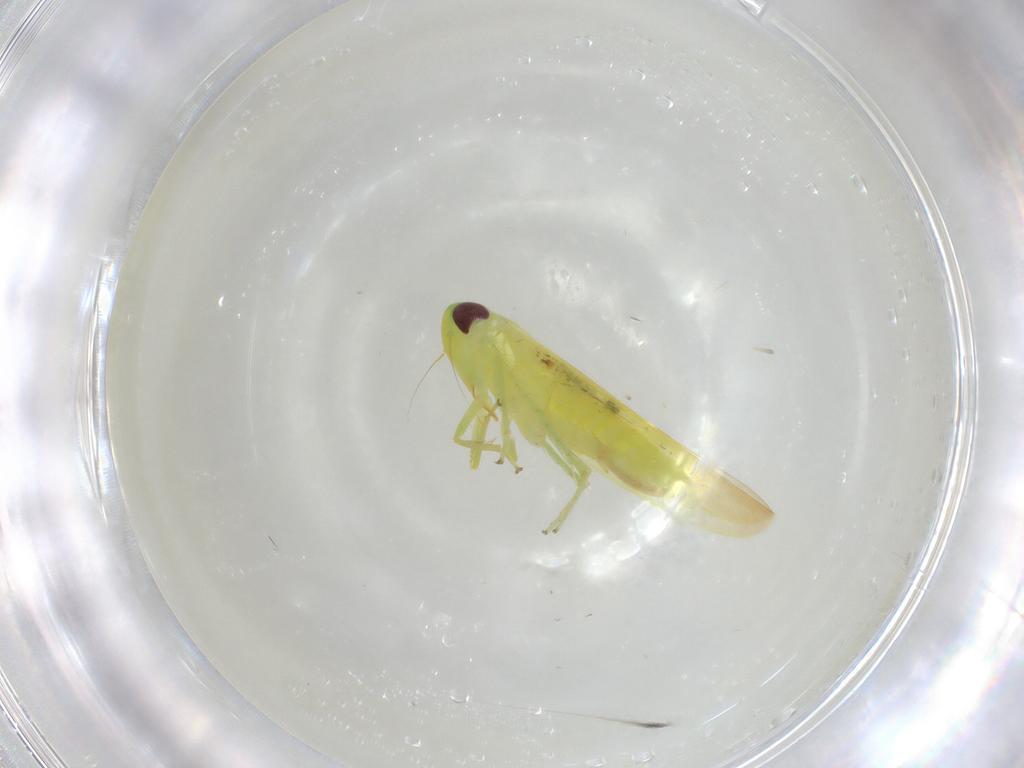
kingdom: Animalia
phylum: Arthropoda
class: Insecta
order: Hemiptera
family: Cicadellidae
